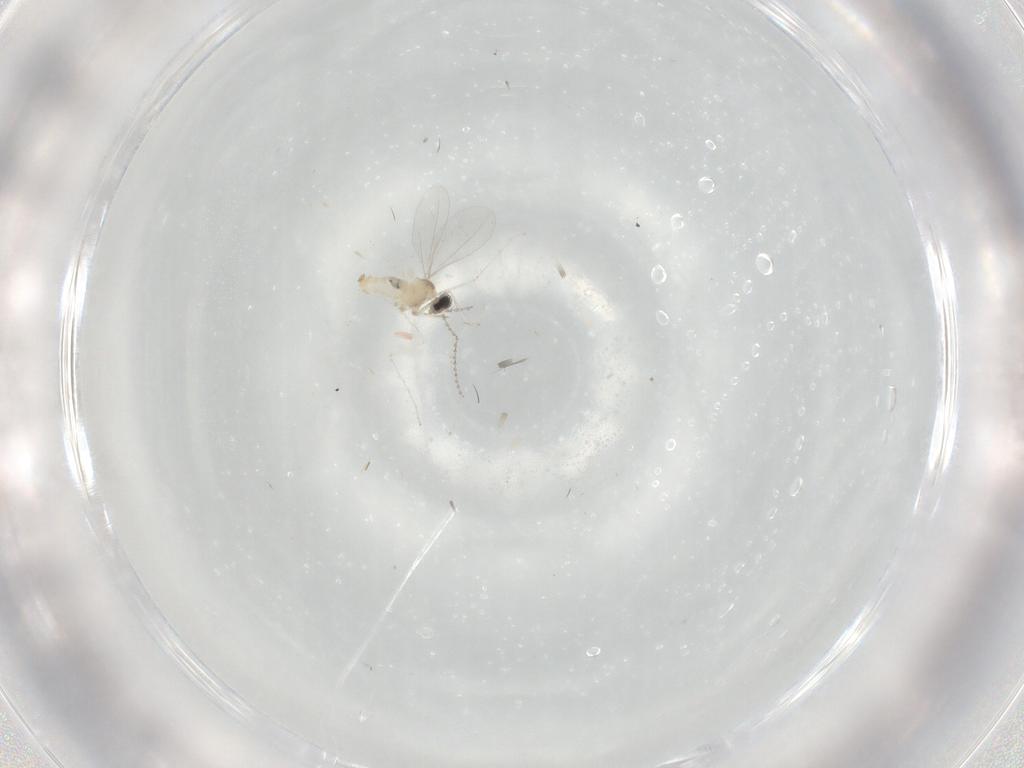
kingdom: Animalia
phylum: Arthropoda
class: Insecta
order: Diptera
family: Cecidomyiidae
